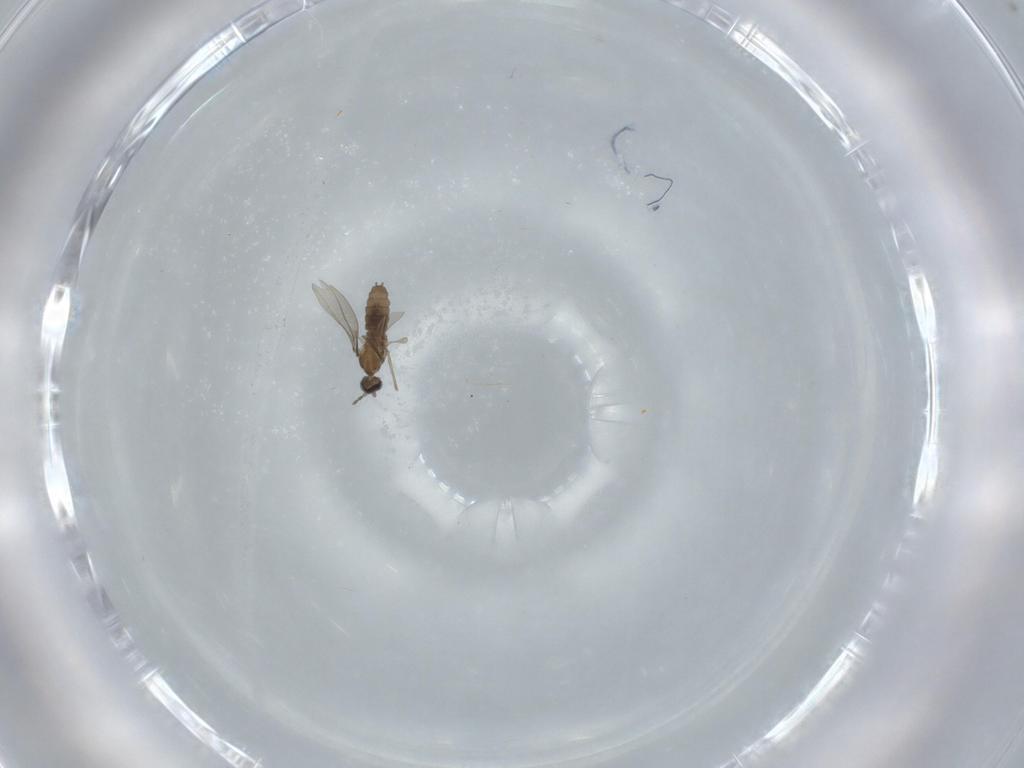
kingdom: Animalia
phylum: Arthropoda
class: Insecta
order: Diptera
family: Cecidomyiidae
